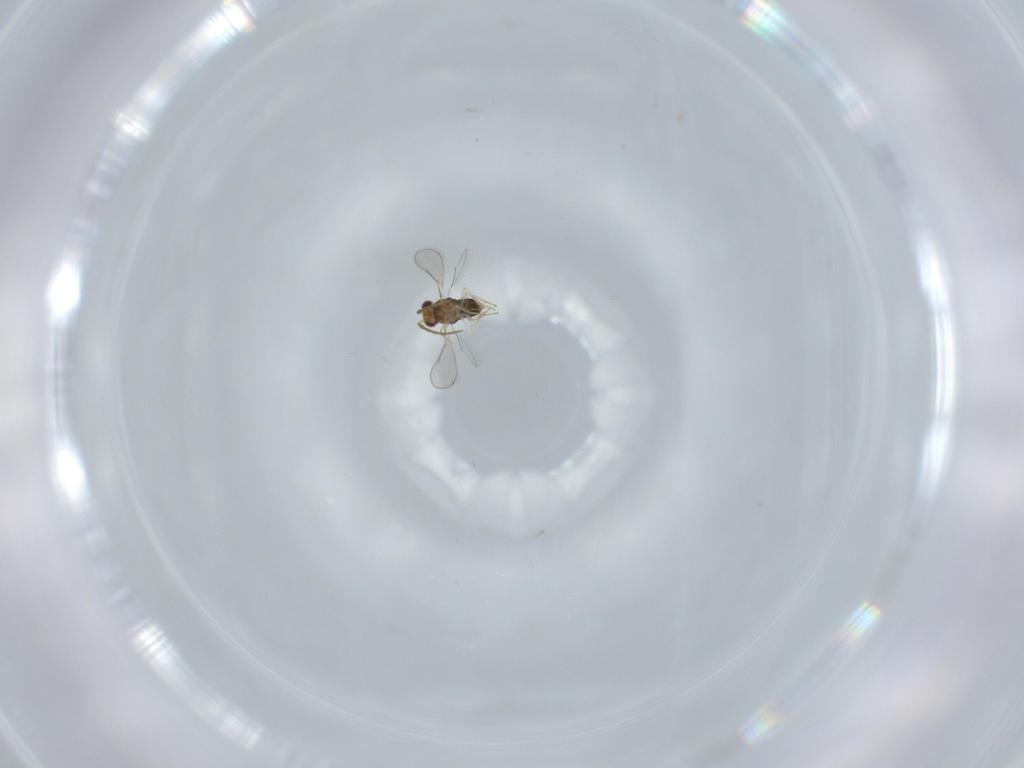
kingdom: Animalia
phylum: Arthropoda
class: Insecta
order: Hymenoptera
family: Aphelinidae
